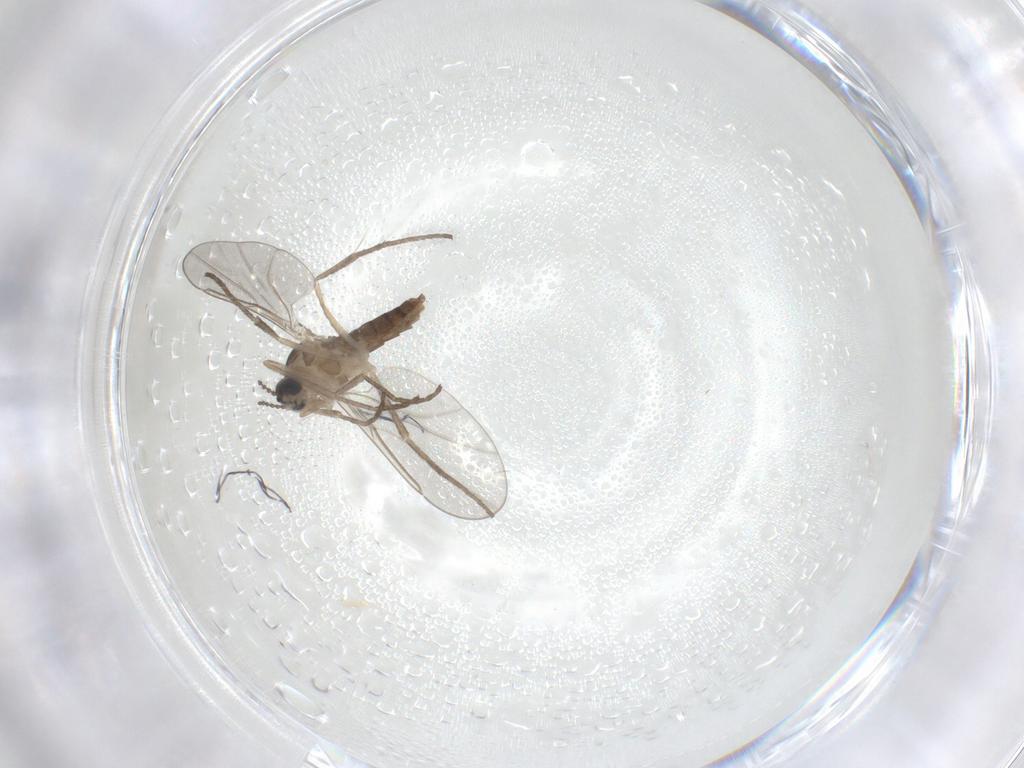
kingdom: Animalia
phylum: Arthropoda
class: Insecta
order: Diptera
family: Cecidomyiidae
